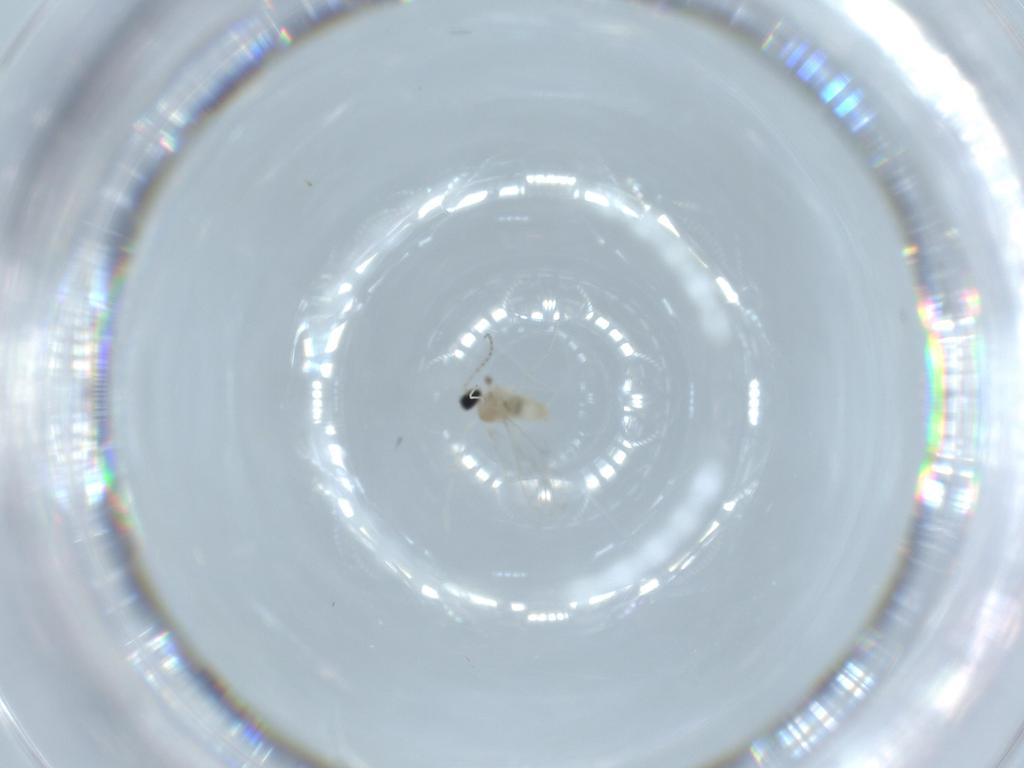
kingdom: Animalia
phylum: Arthropoda
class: Insecta
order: Diptera
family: Cecidomyiidae
